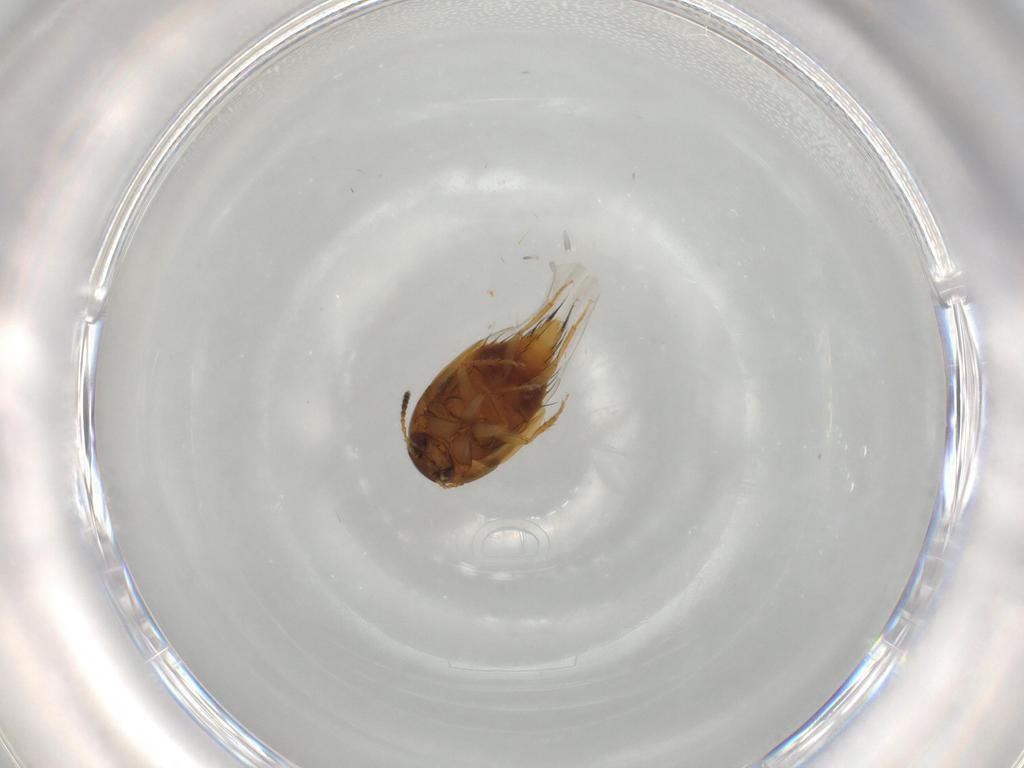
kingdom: Animalia
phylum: Arthropoda
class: Insecta
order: Coleoptera
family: Staphylinidae
